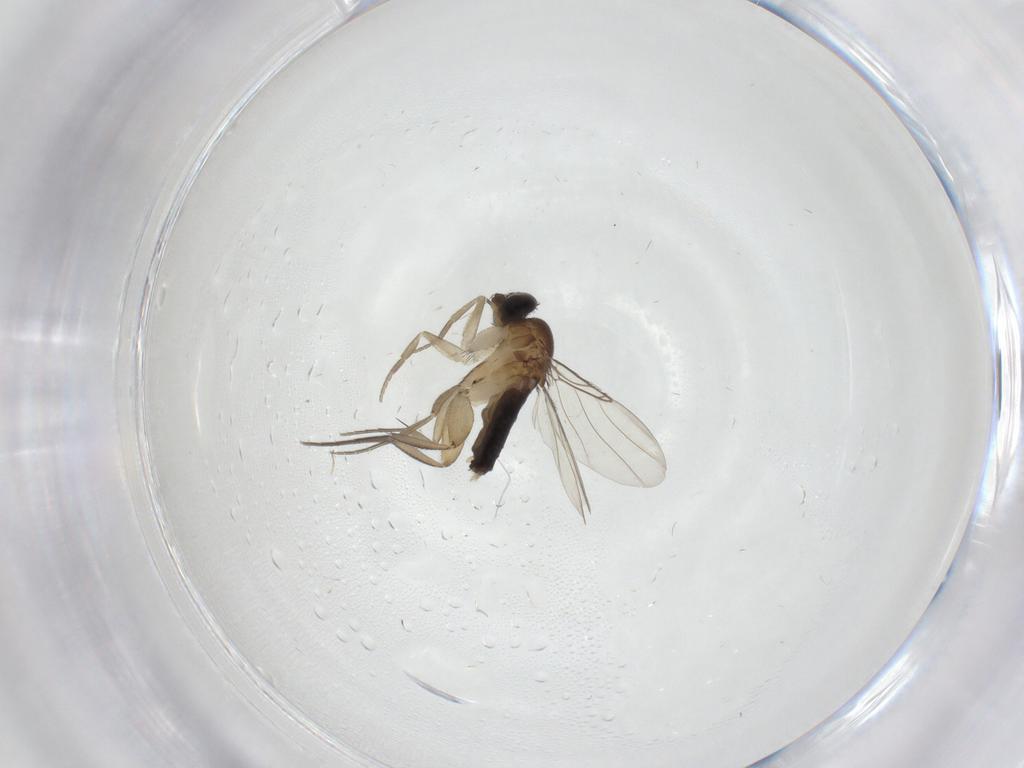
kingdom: Animalia
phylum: Arthropoda
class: Insecta
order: Diptera
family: Phoridae
